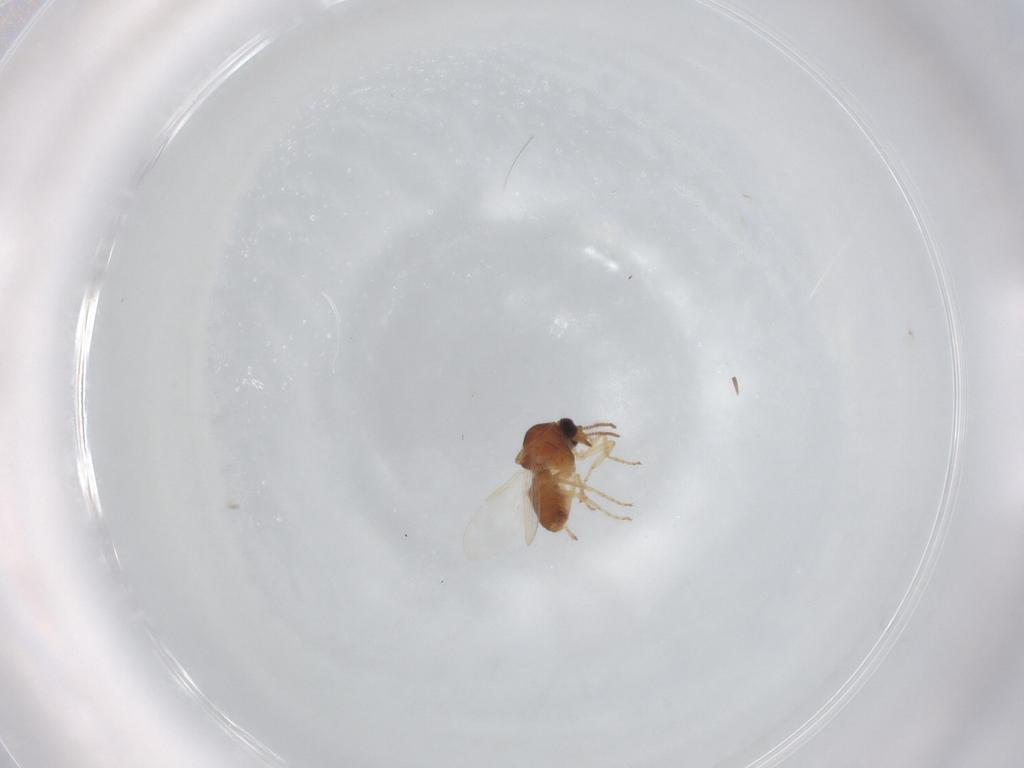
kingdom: Animalia
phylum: Arthropoda
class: Insecta
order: Diptera
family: Ceratopogonidae
